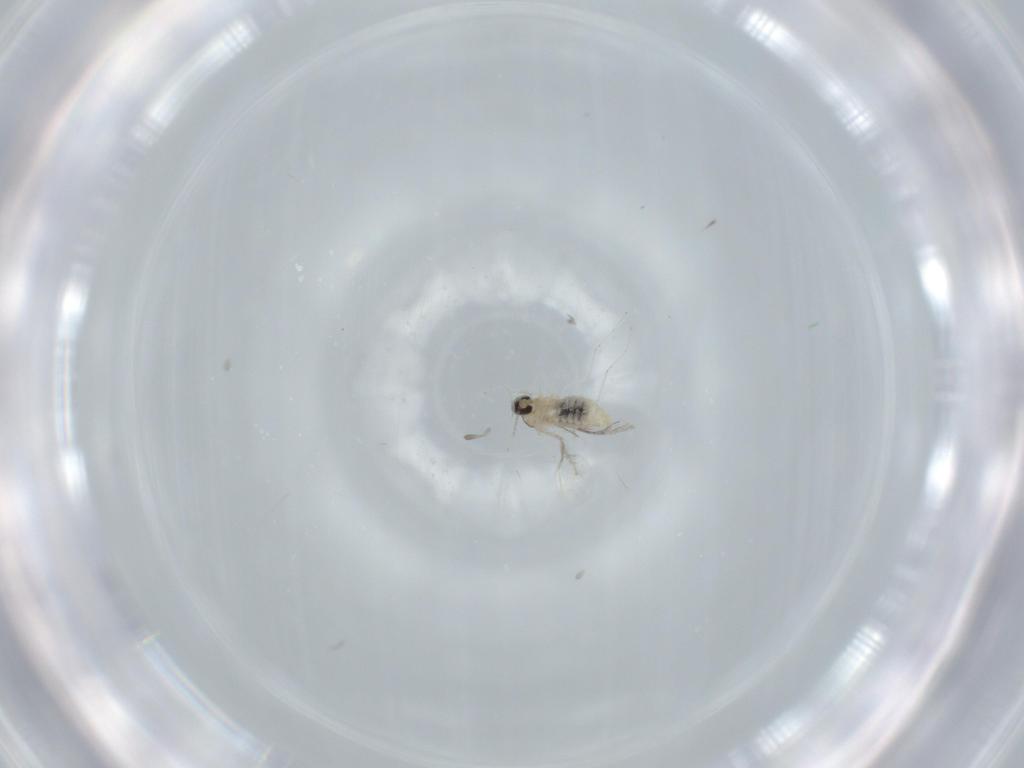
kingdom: Animalia
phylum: Arthropoda
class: Insecta
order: Diptera
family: Cecidomyiidae
